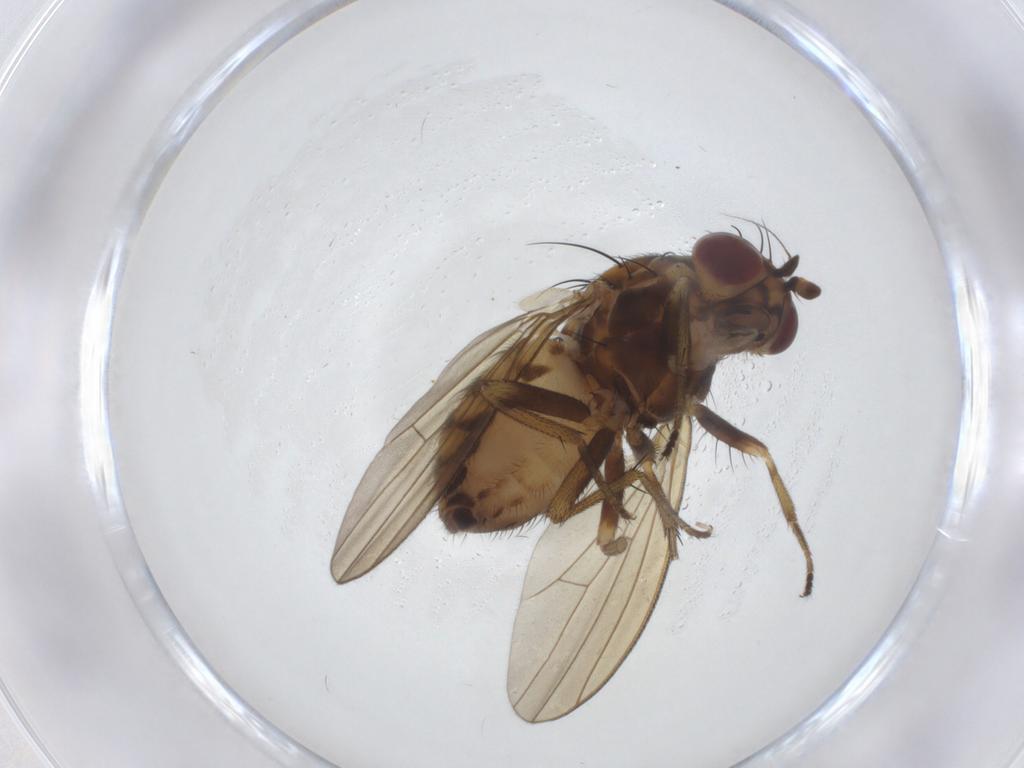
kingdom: Animalia
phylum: Arthropoda
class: Insecta
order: Diptera
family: Psychodidae
